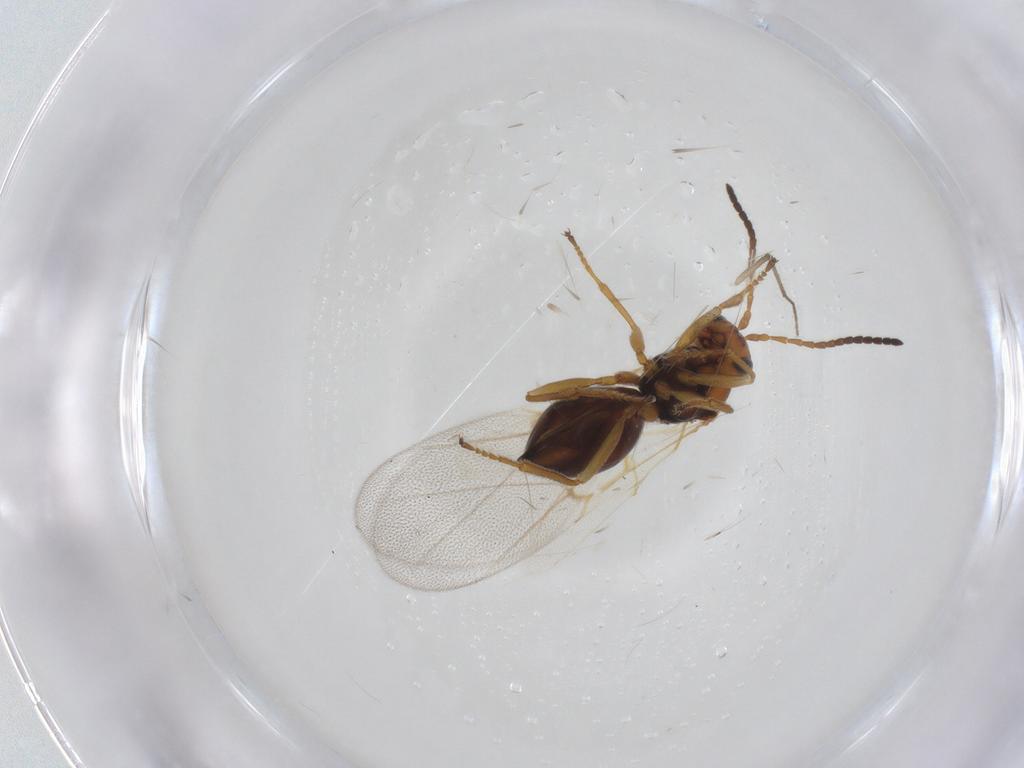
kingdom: Animalia
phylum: Arthropoda
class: Insecta
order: Hymenoptera
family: Cynipidae
